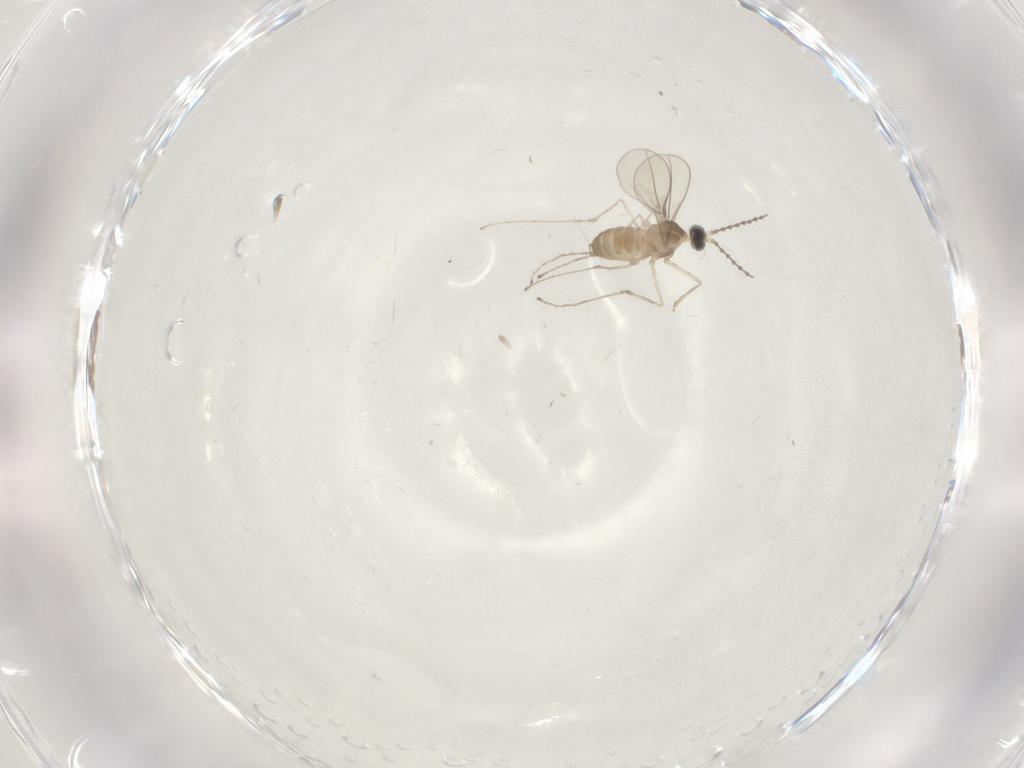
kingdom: Animalia
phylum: Arthropoda
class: Insecta
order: Diptera
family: Cecidomyiidae
